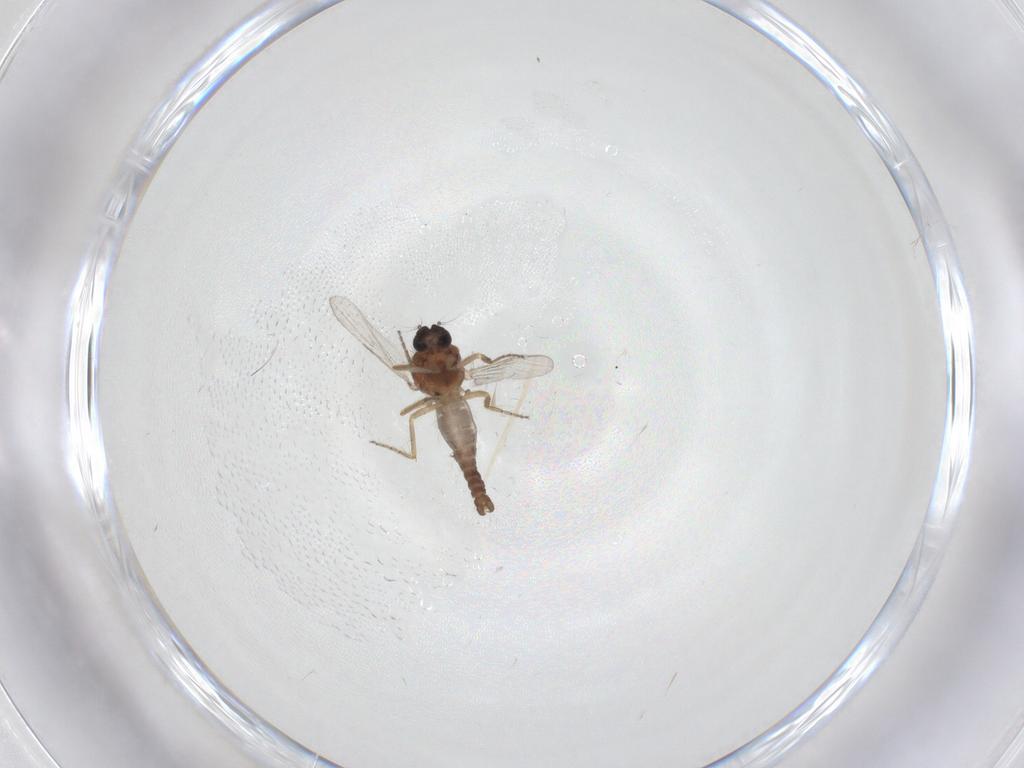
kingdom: Animalia
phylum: Arthropoda
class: Insecta
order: Diptera
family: Ceratopogonidae
